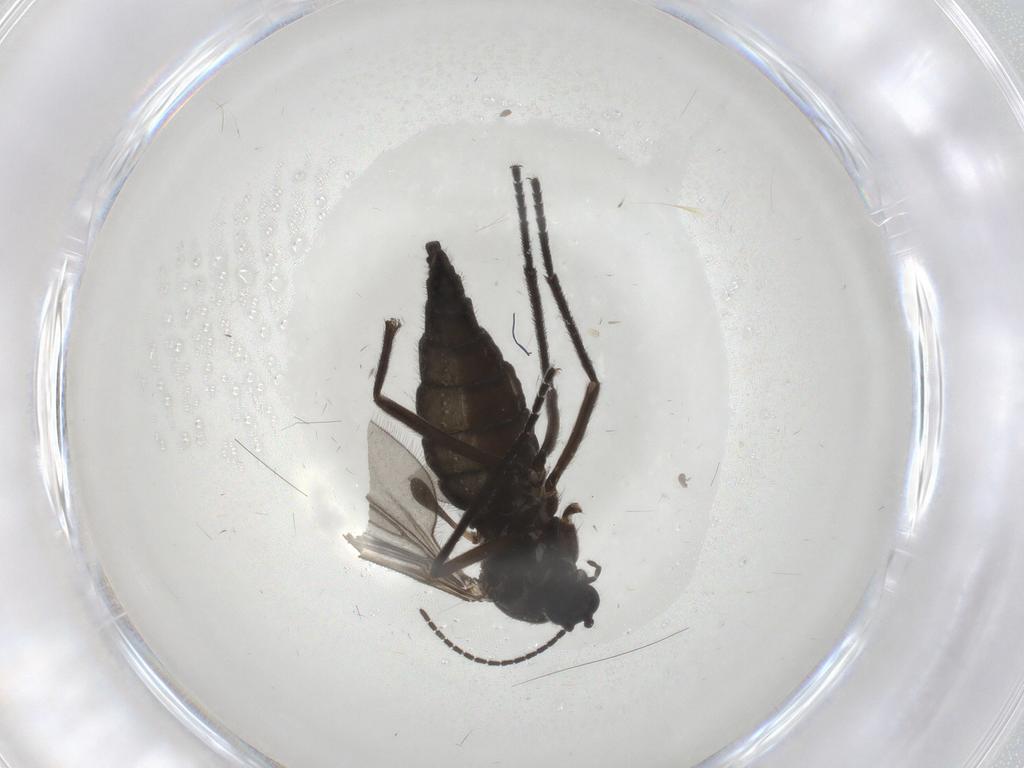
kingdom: Animalia
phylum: Arthropoda
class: Insecta
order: Diptera
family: Sciaridae
